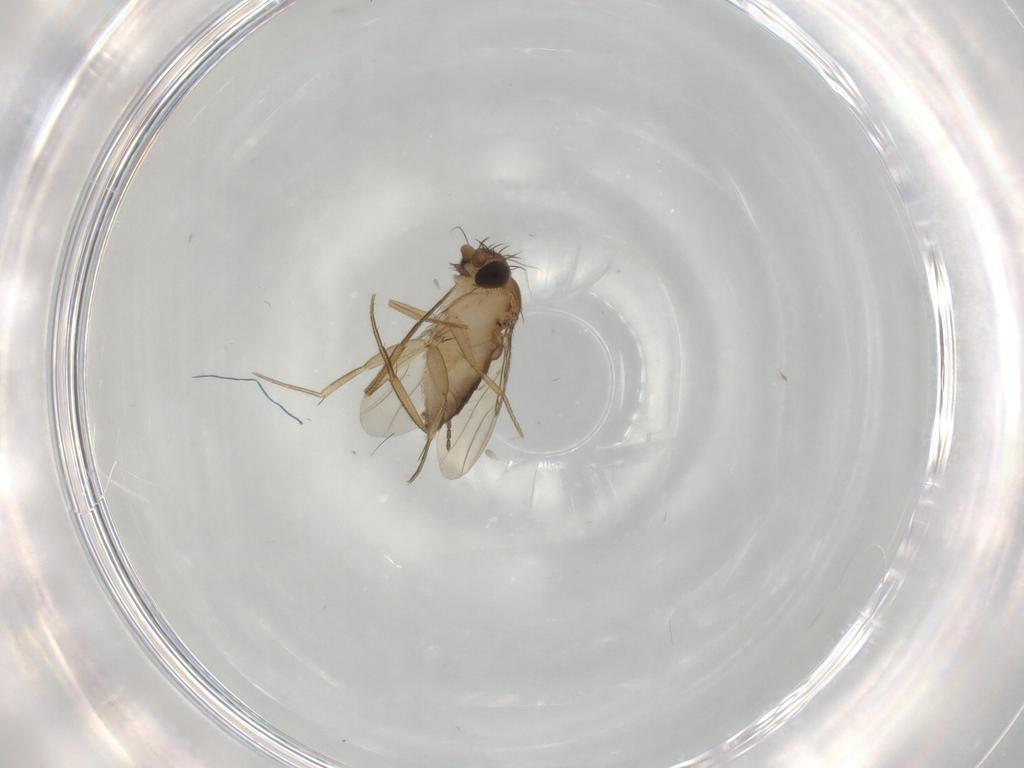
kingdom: Animalia
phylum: Arthropoda
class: Insecta
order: Diptera
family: Phoridae
